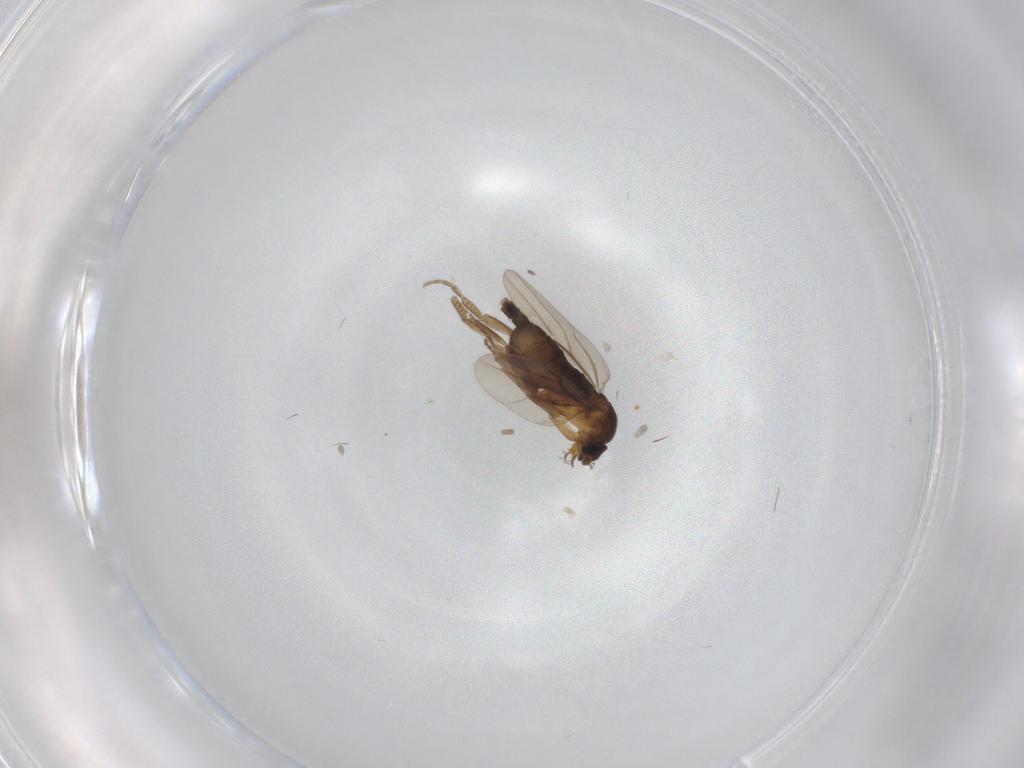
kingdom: Animalia
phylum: Arthropoda
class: Insecta
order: Diptera
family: Phoridae
